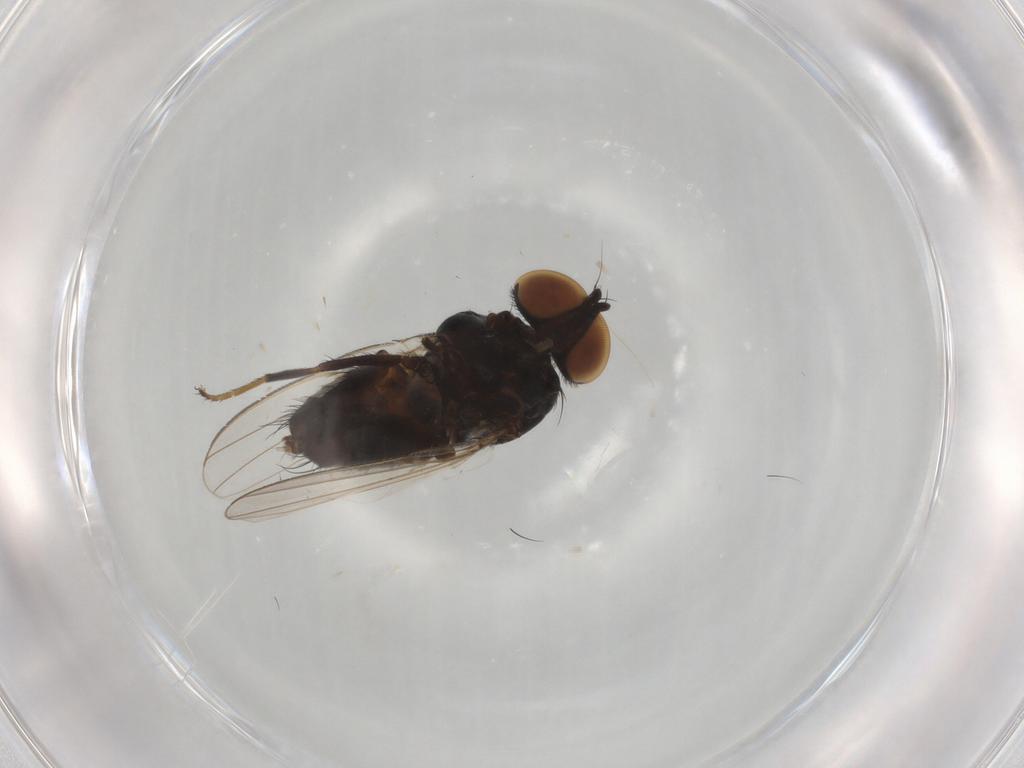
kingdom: Animalia
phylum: Arthropoda
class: Insecta
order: Diptera
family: Milichiidae
